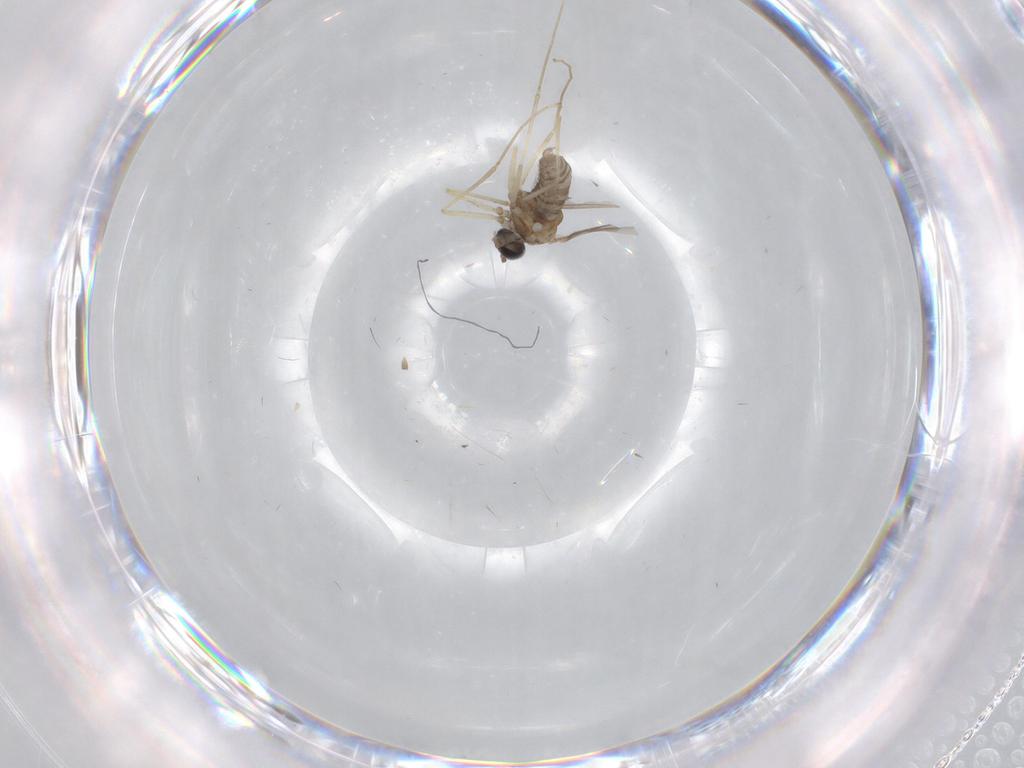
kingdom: Animalia
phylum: Arthropoda
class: Insecta
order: Diptera
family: Cecidomyiidae
